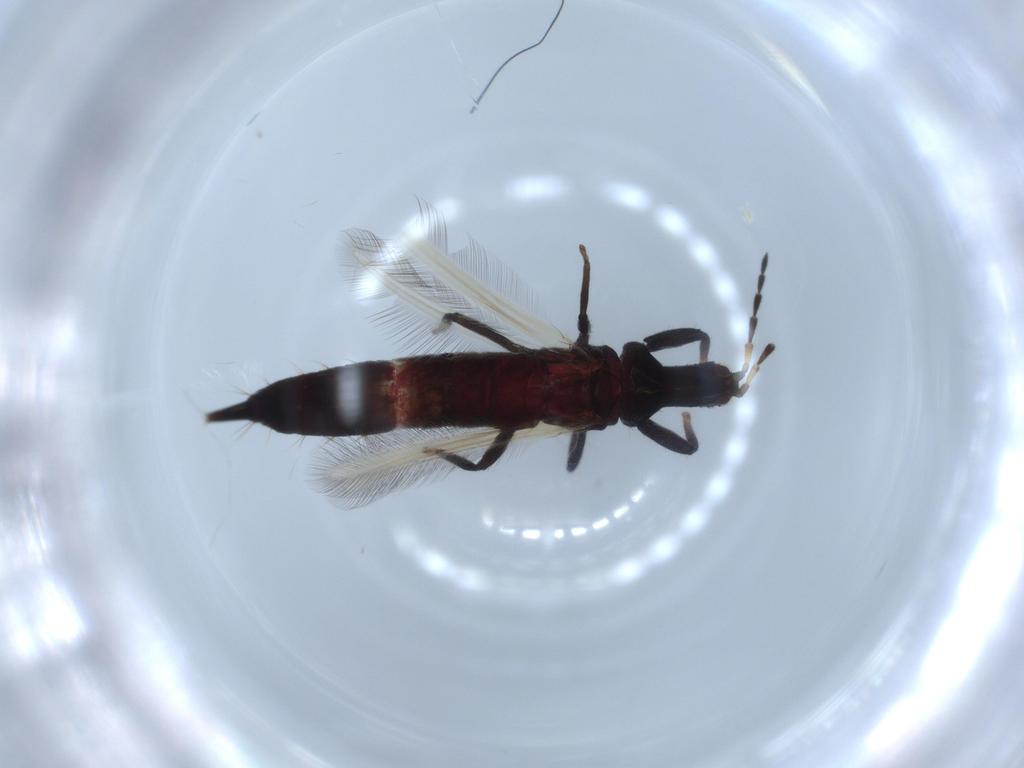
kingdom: Animalia
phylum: Arthropoda
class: Insecta
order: Thysanoptera
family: Phlaeothripidae
